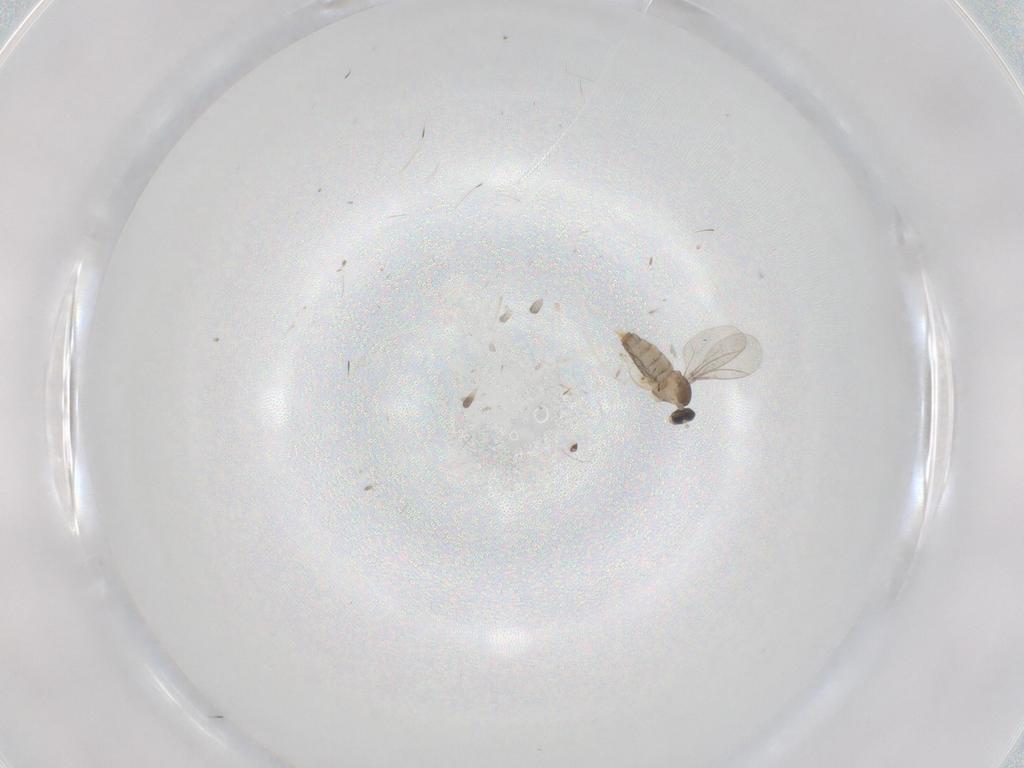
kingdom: Animalia
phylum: Arthropoda
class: Insecta
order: Diptera
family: Cecidomyiidae
